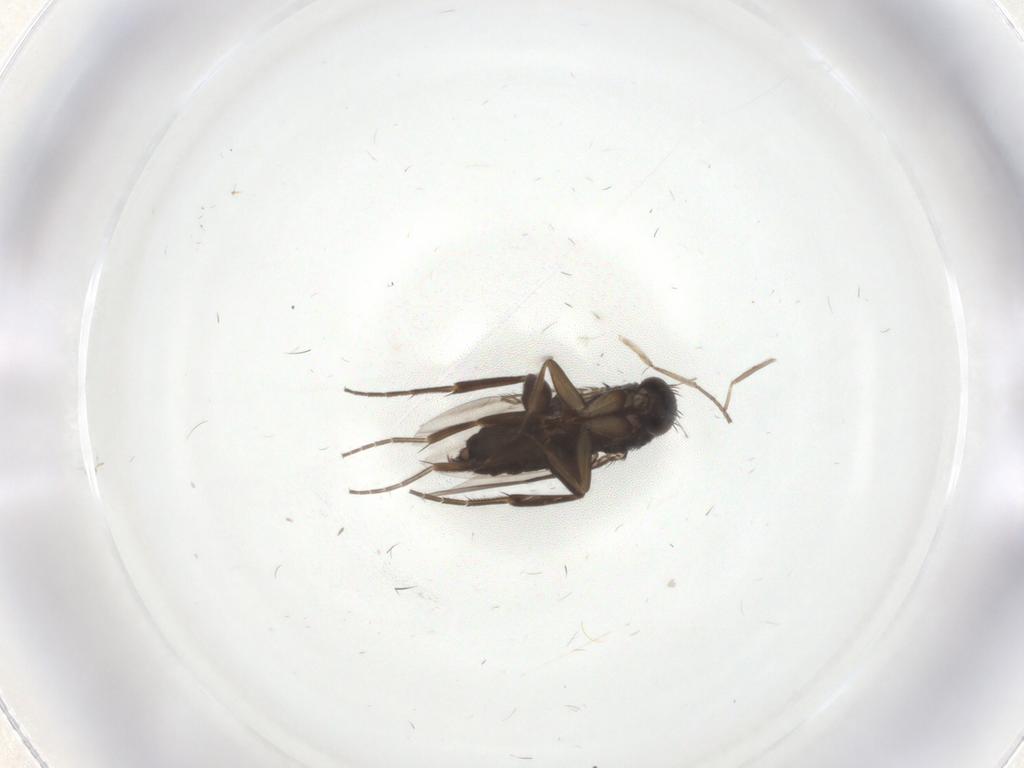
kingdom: Animalia
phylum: Arthropoda
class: Insecta
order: Diptera
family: Phoridae
